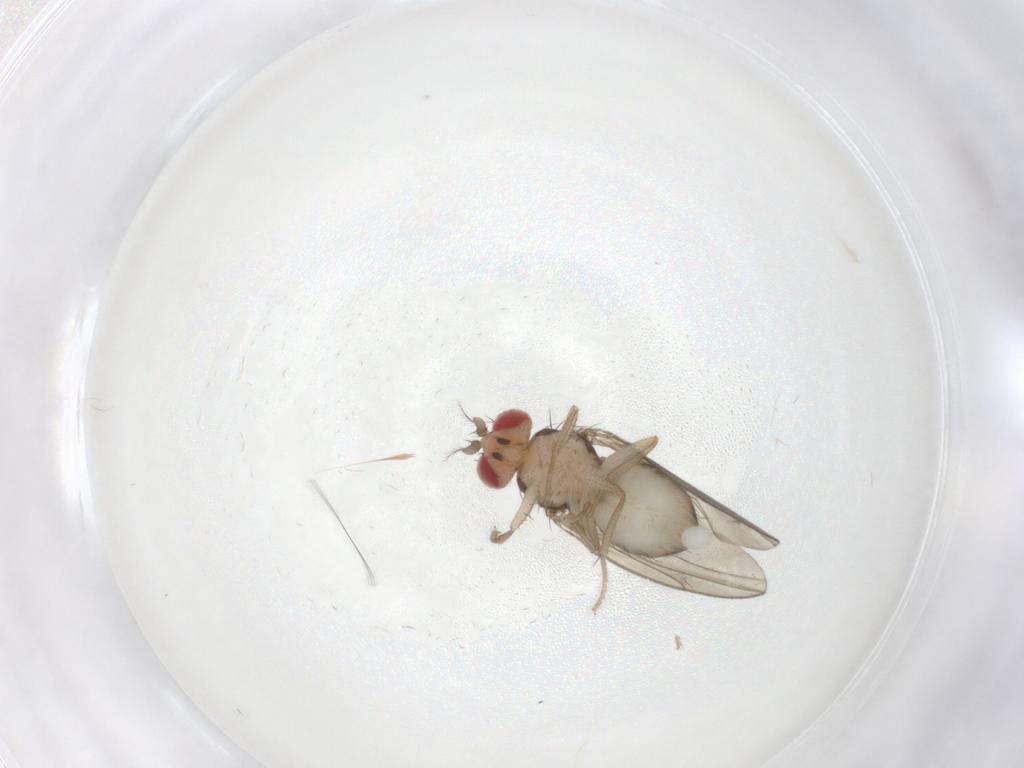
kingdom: Animalia
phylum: Arthropoda
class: Insecta
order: Diptera
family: Drosophilidae
